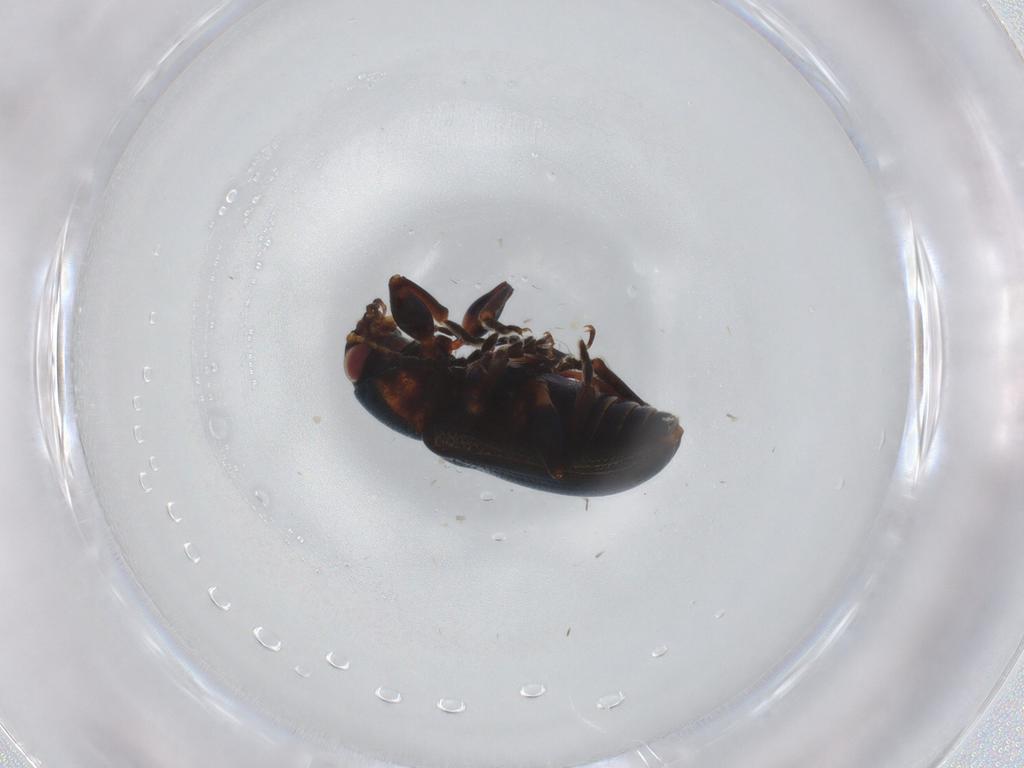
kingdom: Animalia
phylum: Arthropoda
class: Insecta
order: Coleoptera
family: Chrysomelidae
